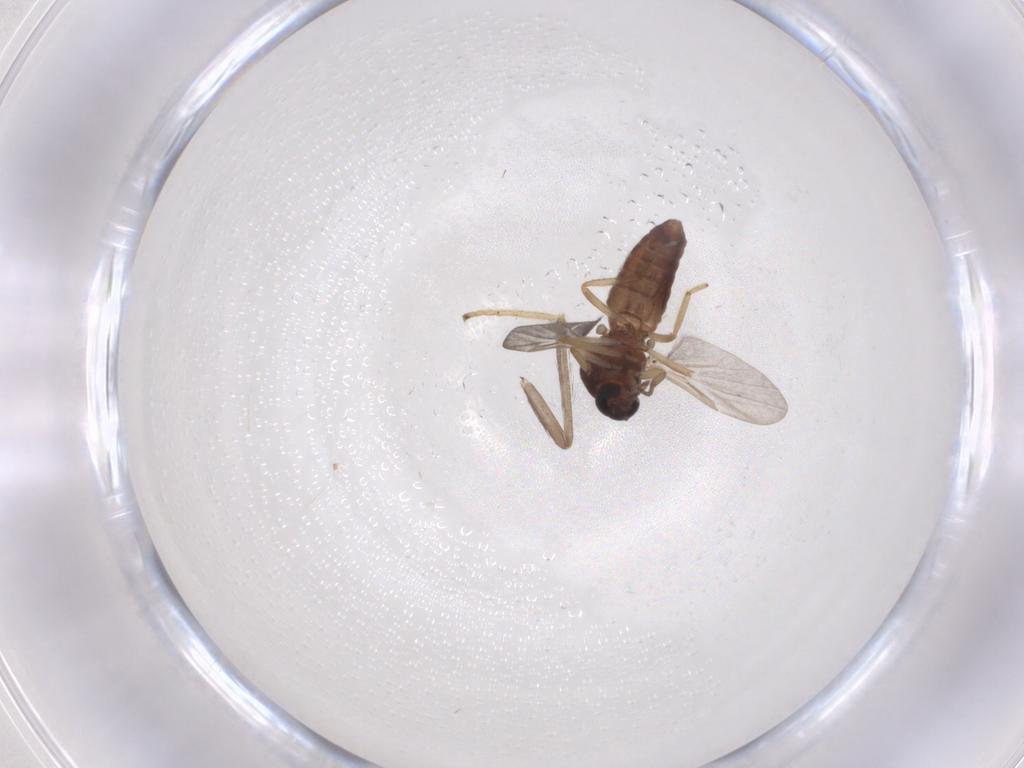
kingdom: Animalia
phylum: Arthropoda
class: Insecta
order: Diptera
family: Ceratopogonidae
